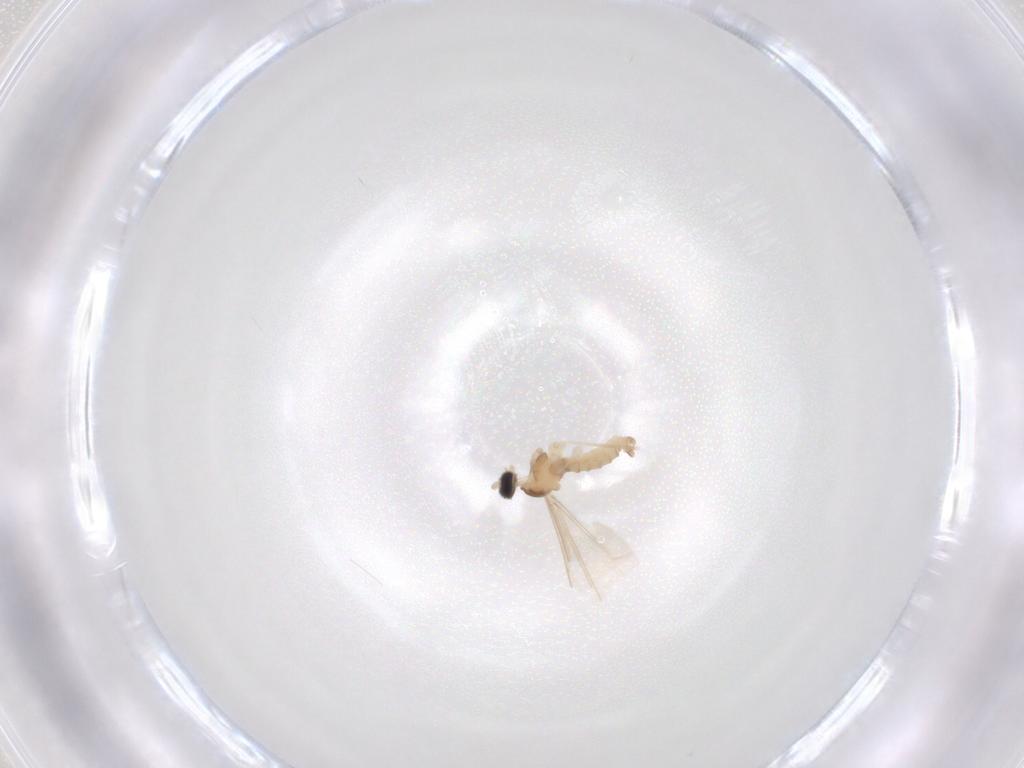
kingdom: Animalia
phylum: Arthropoda
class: Insecta
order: Diptera
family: Cecidomyiidae
